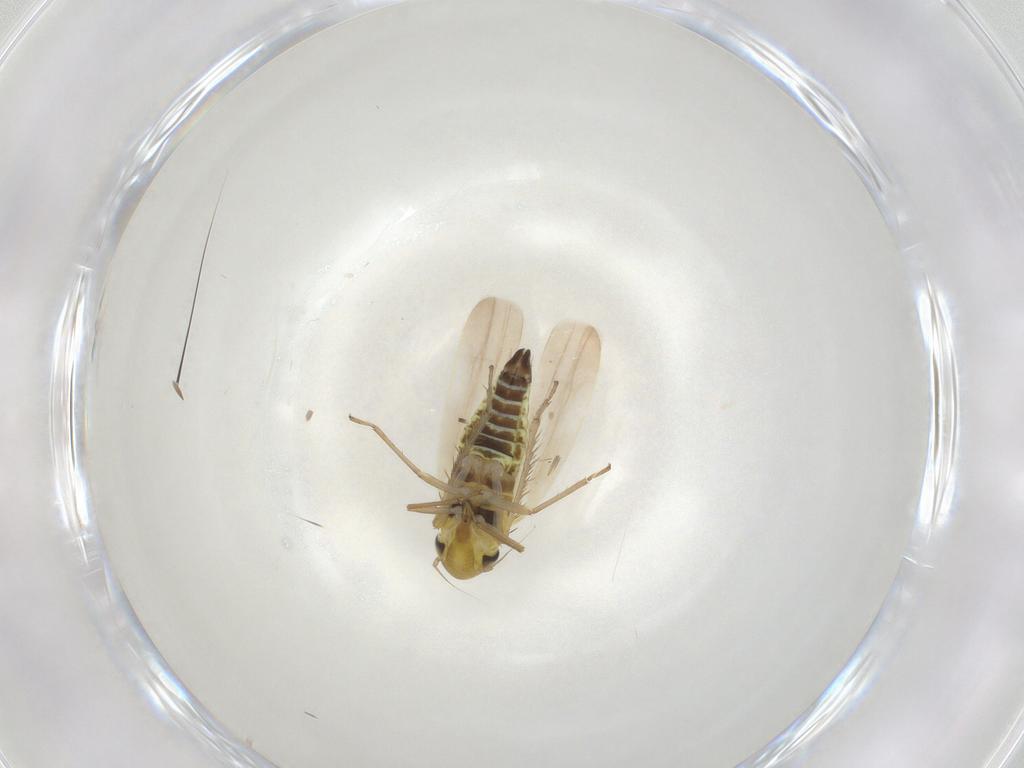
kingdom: Animalia
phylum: Arthropoda
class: Insecta
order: Hemiptera
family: Cicadellidae
